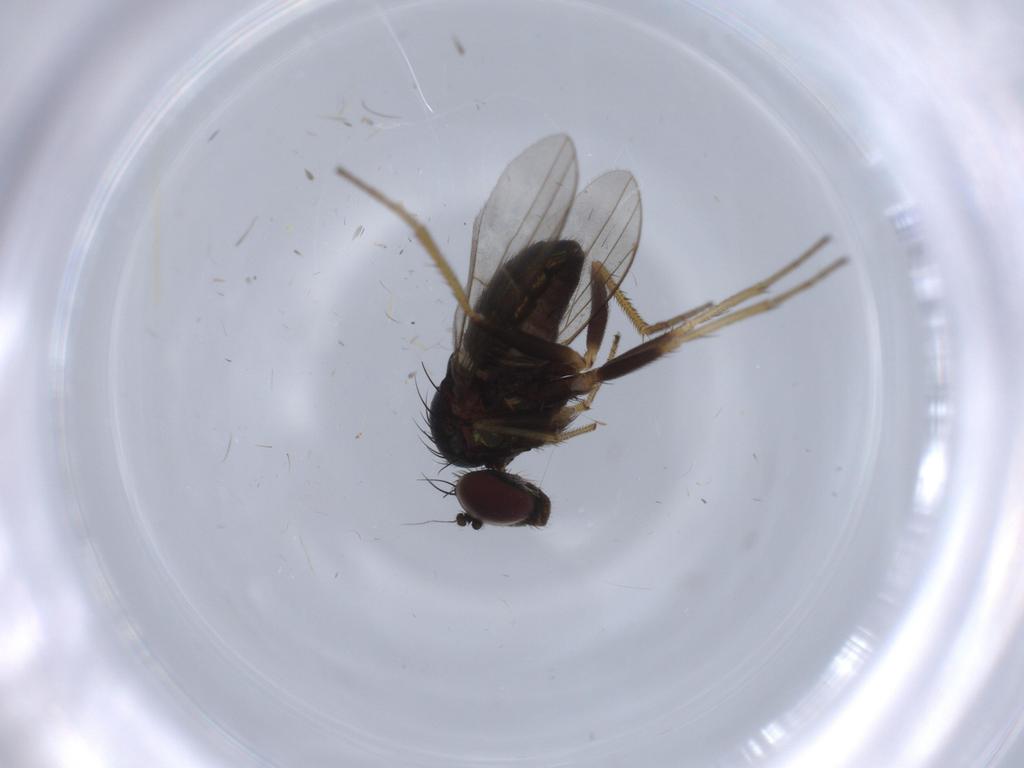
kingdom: Animalia
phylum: Arthropoda
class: Insecta
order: Diptera
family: Dolichopodidae
